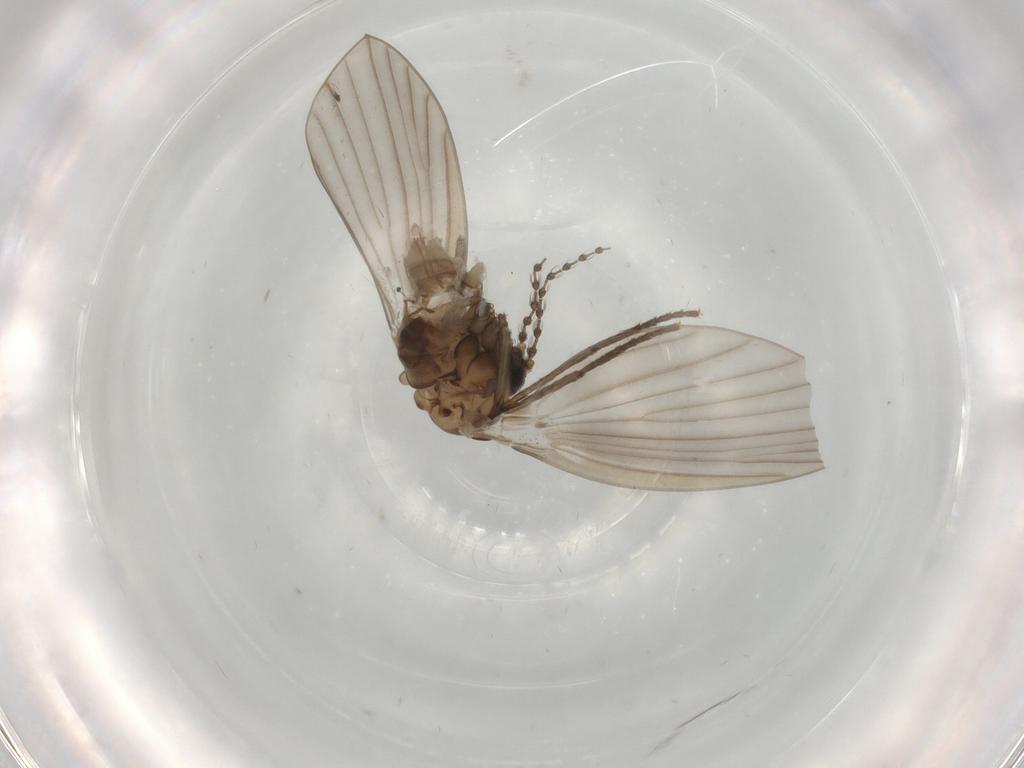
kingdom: Animalia
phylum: Arthropoda
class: Insecta
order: Diptera
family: Psychodidae
